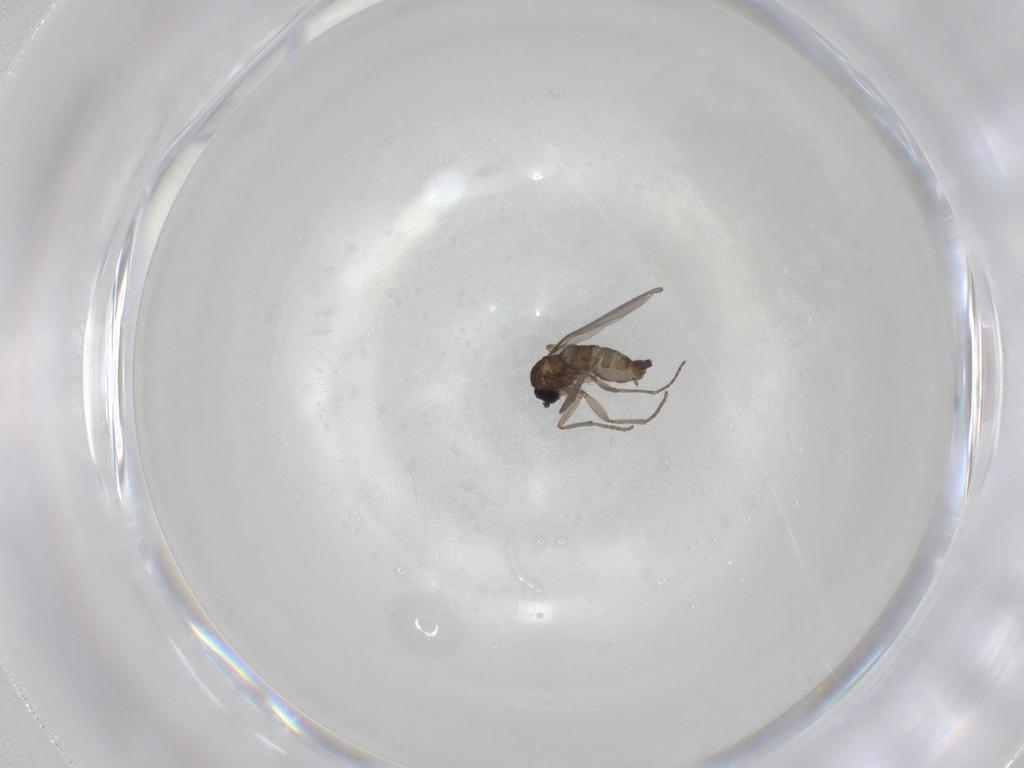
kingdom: Animalia
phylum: Arthropoda
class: Insecta
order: Diptera
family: Sciaridae
